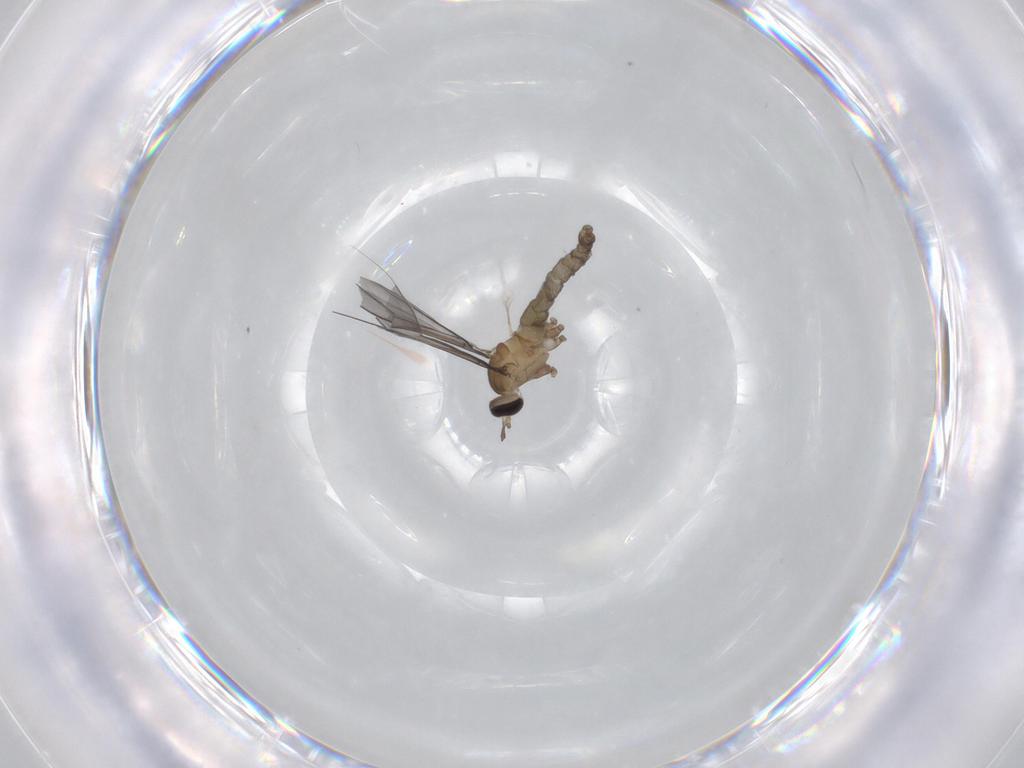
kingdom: Animalia
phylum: Arthropoda
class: Insecta
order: Diptera
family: Cecidomyiidae
